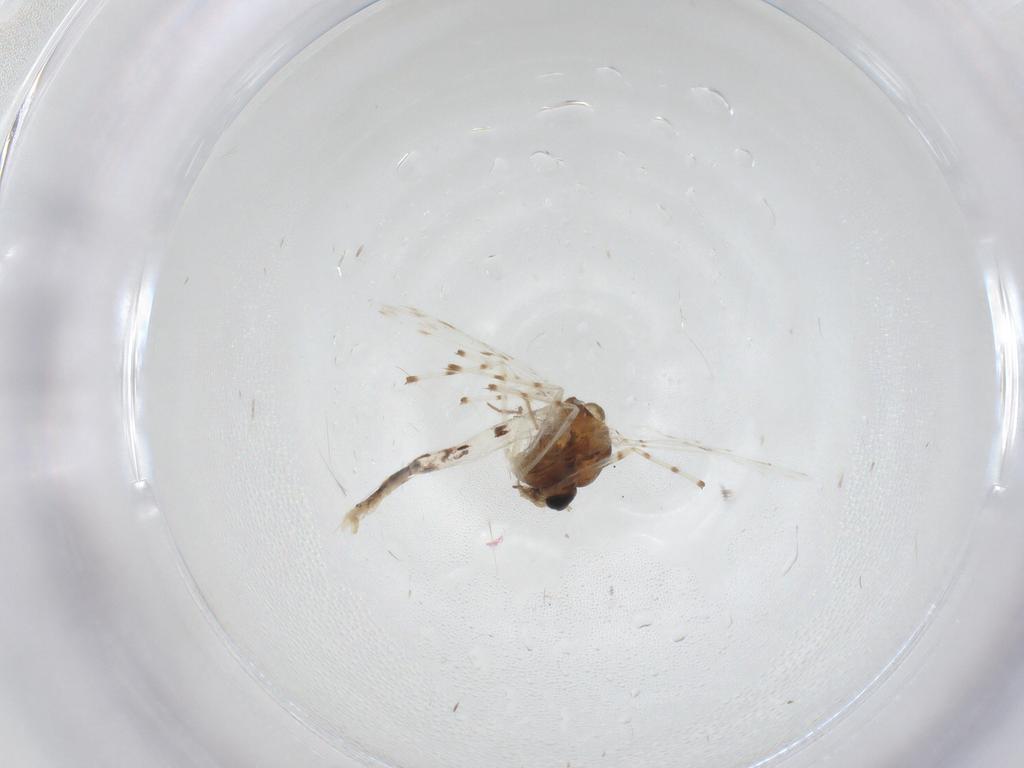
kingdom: Animalia
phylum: Arthropoda
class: Insecta
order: Diptera
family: Chironomidae
